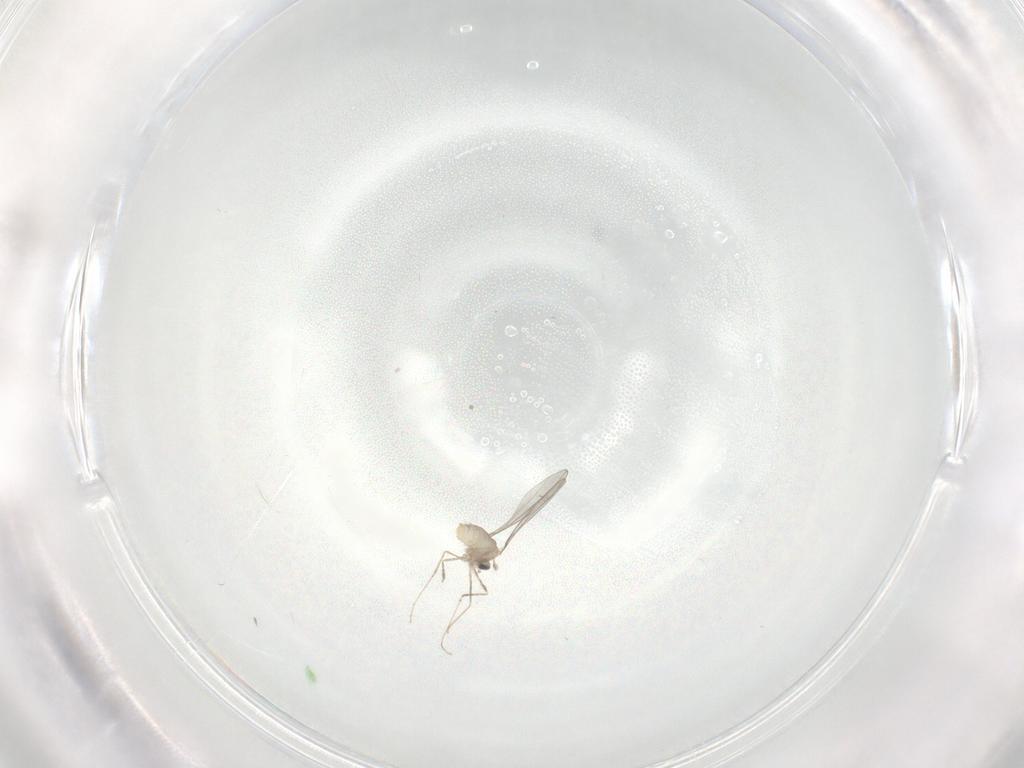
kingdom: Animalia
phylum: Arthropoda
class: Insecta
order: Diptera
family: Cecidomyiidae
